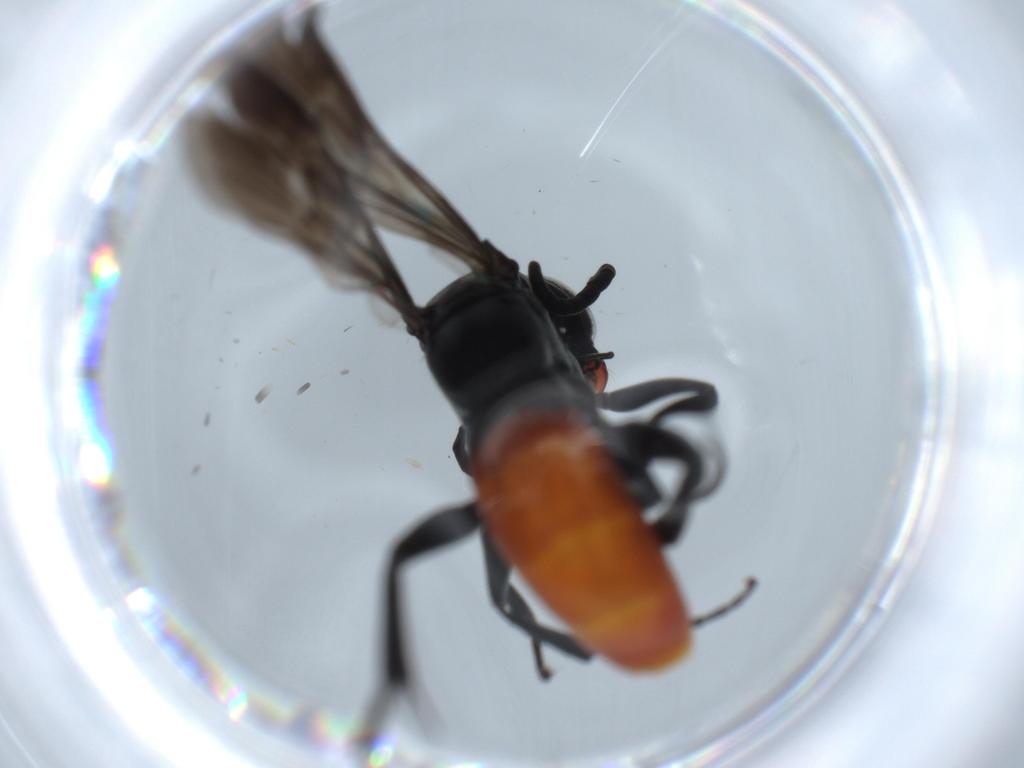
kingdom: Animalia
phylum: Arthropoda
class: Insecta
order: Hymenoptera
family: Pompilidae
